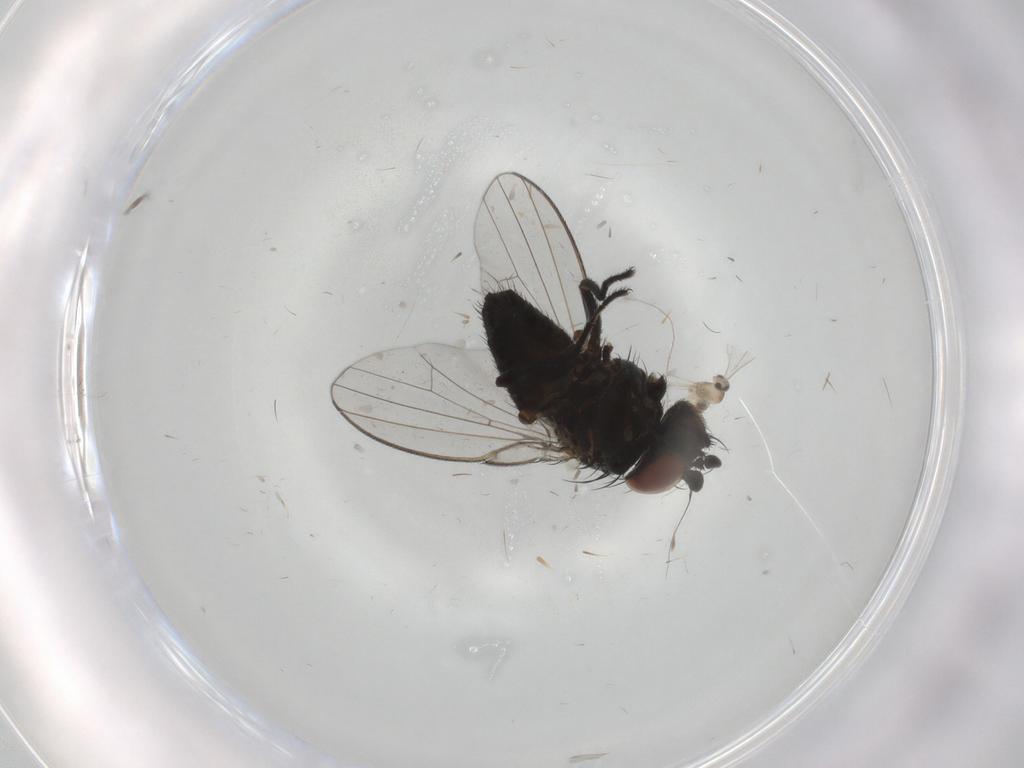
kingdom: Animalia
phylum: Arthropoda
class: Insecta
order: Diptera
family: Milichiidae
